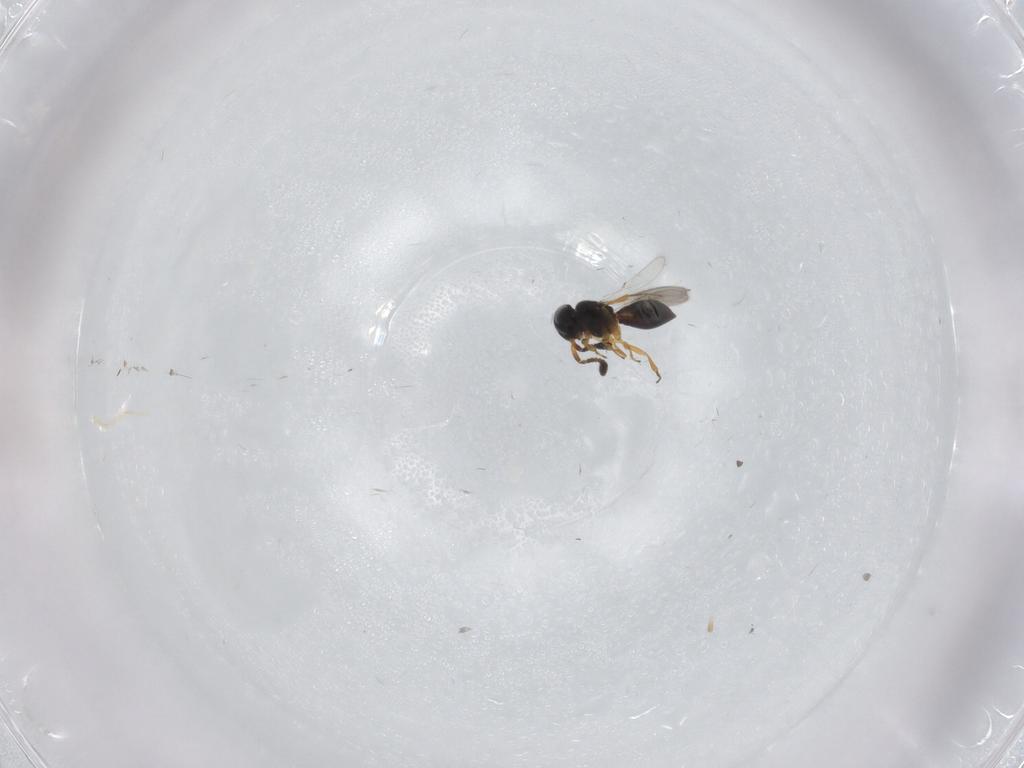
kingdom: Animalia
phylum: Arthropoda
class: Insecta
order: Hymenoptera
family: Scelionidae
